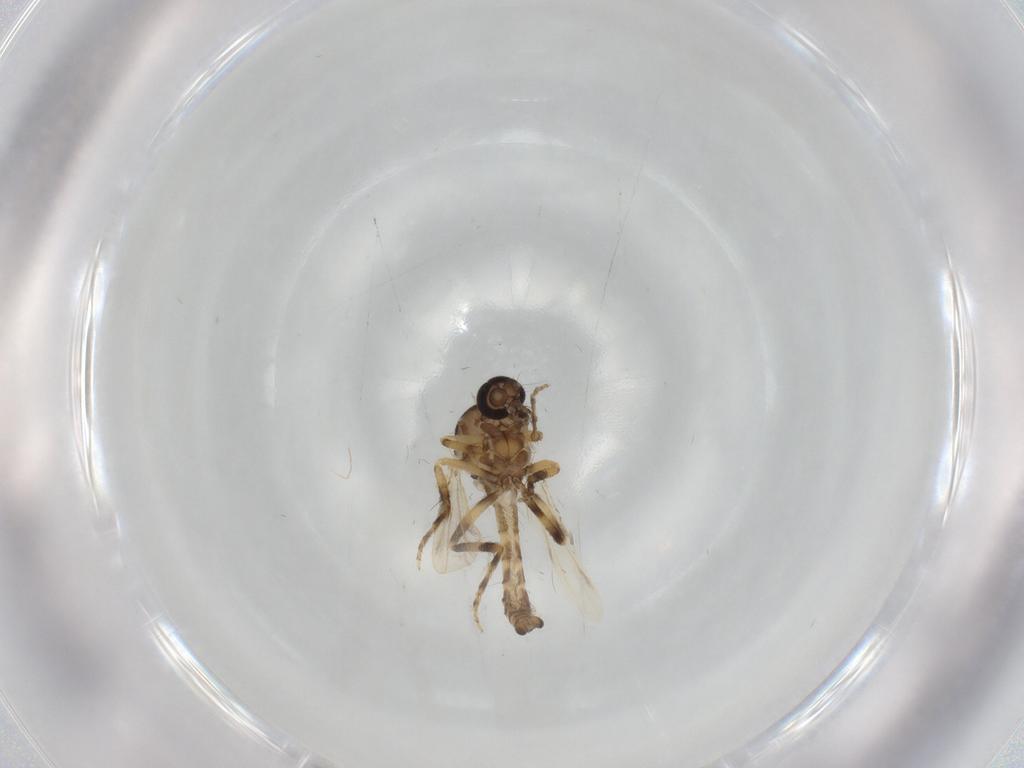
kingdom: Animalia
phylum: Arthropoda
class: Insecta
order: Diptera
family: Ceratopogonidae
